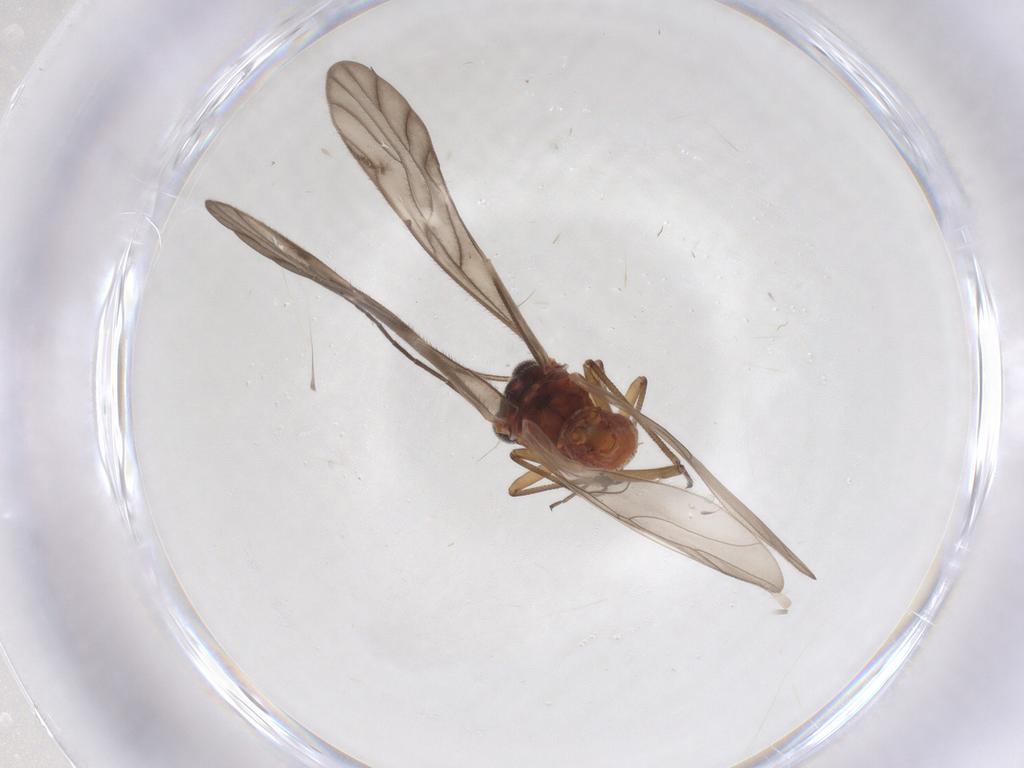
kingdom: Animalia
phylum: Arthropoda
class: Insecta
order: Psocodea
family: Caeciliusidae
